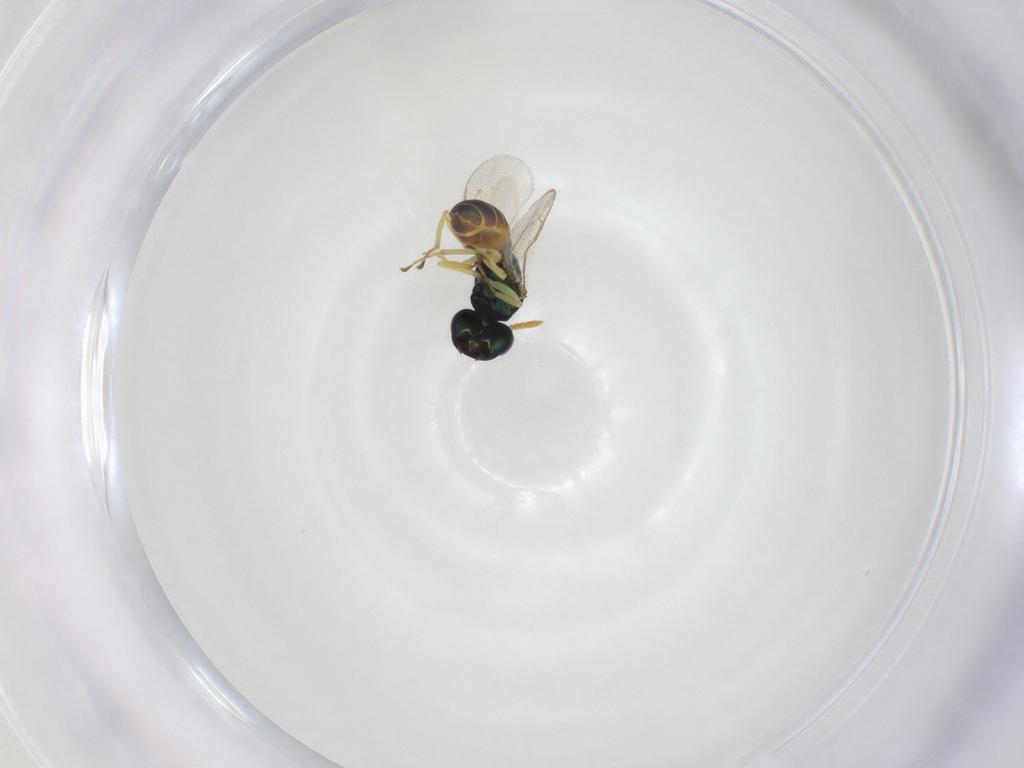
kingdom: Animalia
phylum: Arthropoda
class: Insecta
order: Hymenoptera
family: Pteromalidae
